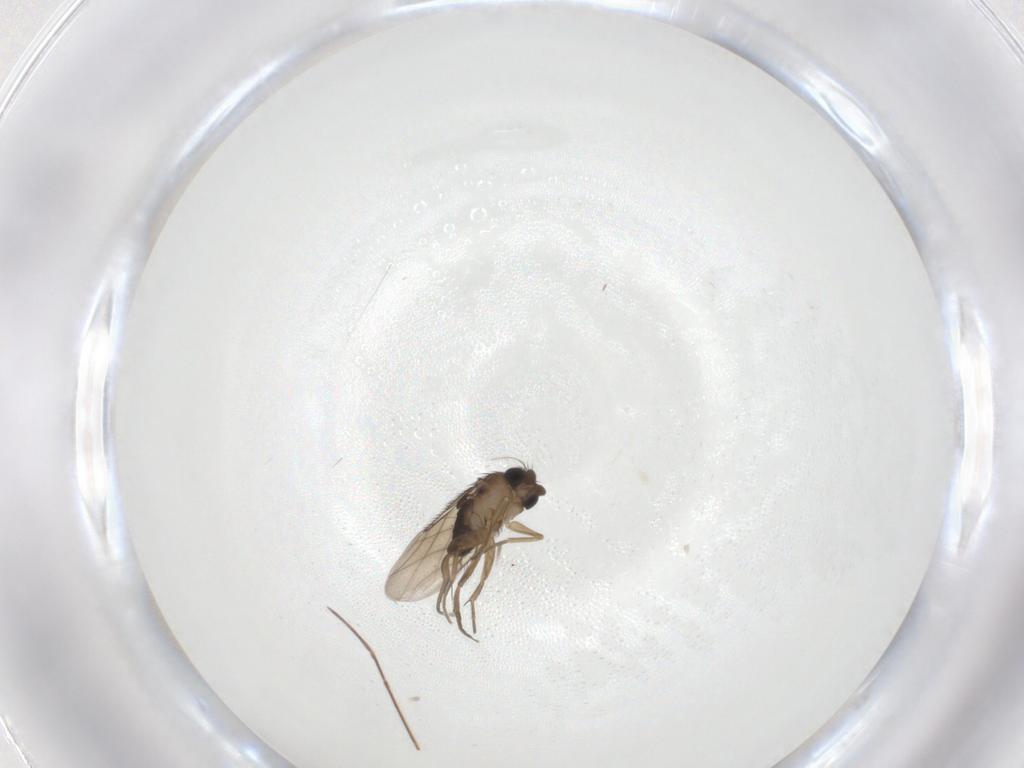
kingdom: Animalia
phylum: Arthropoda
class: Insecta
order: Diptera
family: Phoridae
